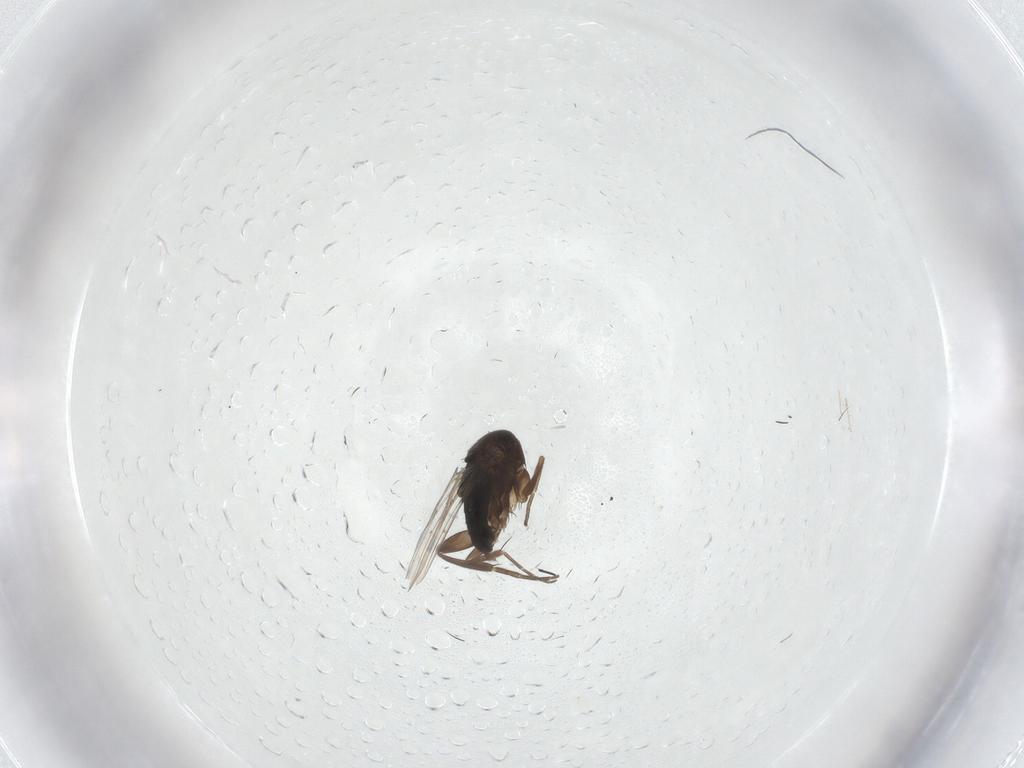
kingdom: Animalia
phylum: Arthropoda
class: Insecta
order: Diptera
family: Phoridae
